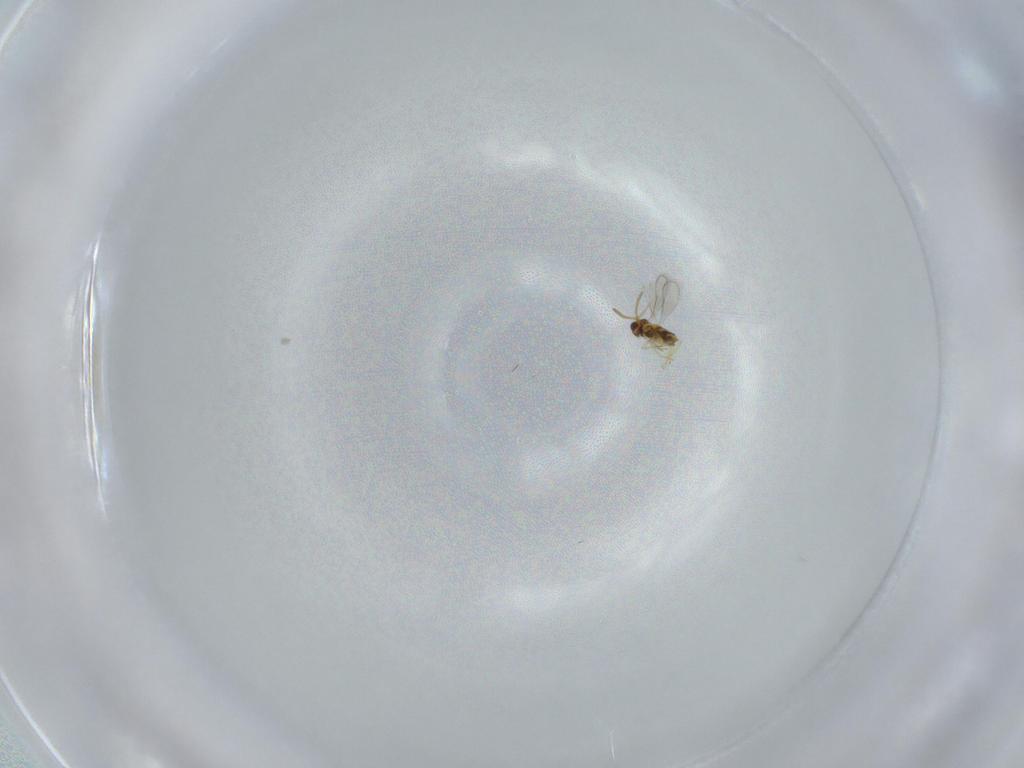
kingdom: Animalia
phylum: Arthropoda
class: Insecta
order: Hymenoptera
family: Aphelinidae
